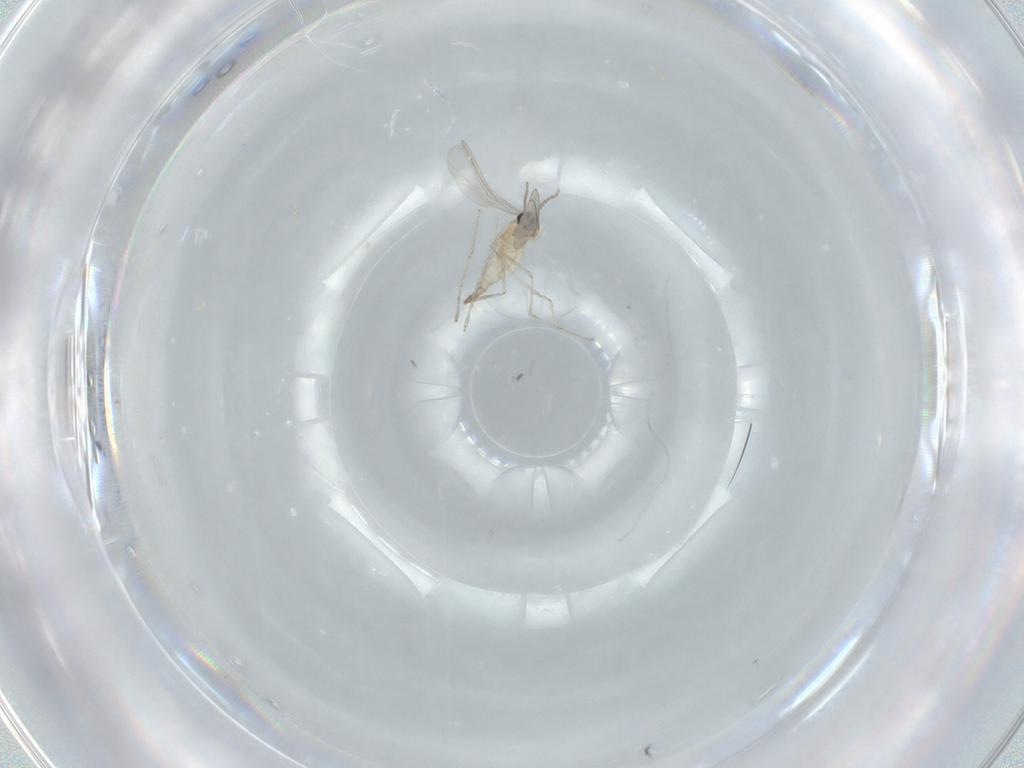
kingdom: Animalia
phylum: Arthropoda
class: Insecta
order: Diptera
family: Cecidomyiidae
